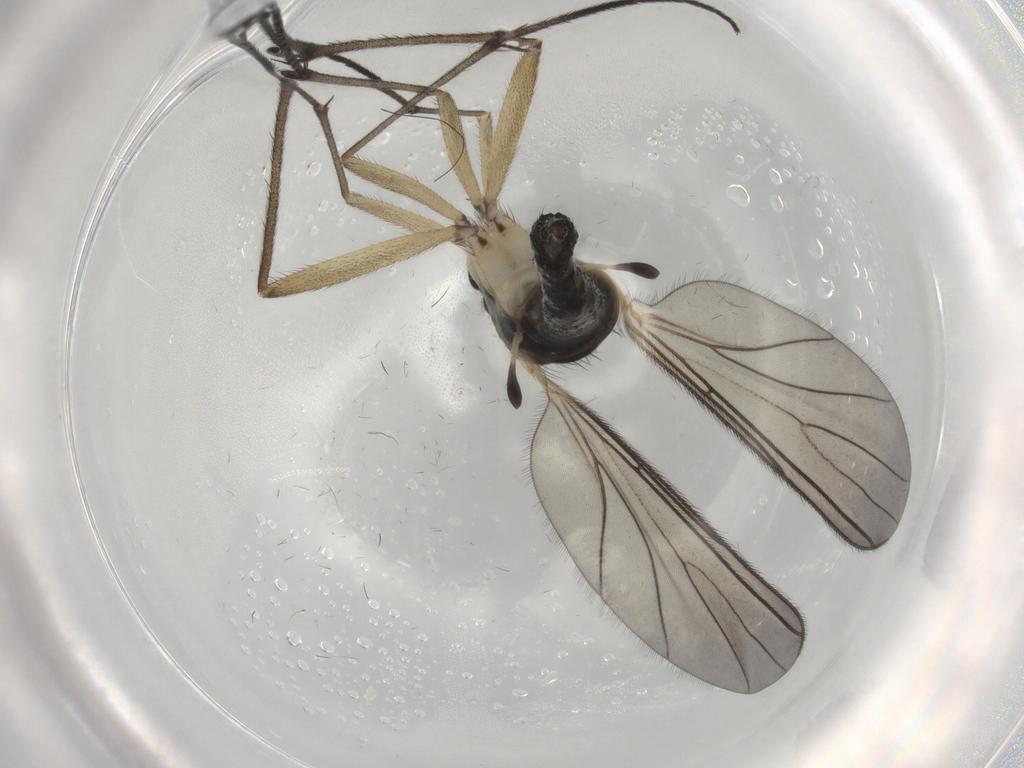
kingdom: Animalia
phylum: Arthropoda
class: Insecta
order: Diptera
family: Sciaridae
